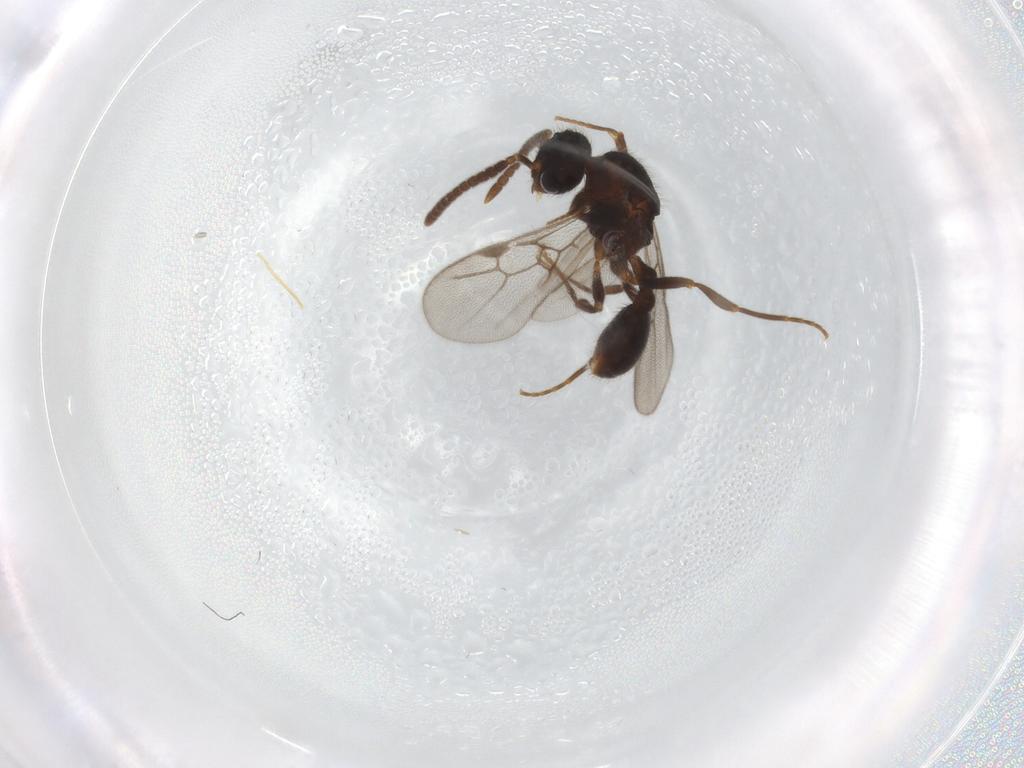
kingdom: Animalia
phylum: Arthropoda
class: Insecta
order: Hymenoptera
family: Formicidae
